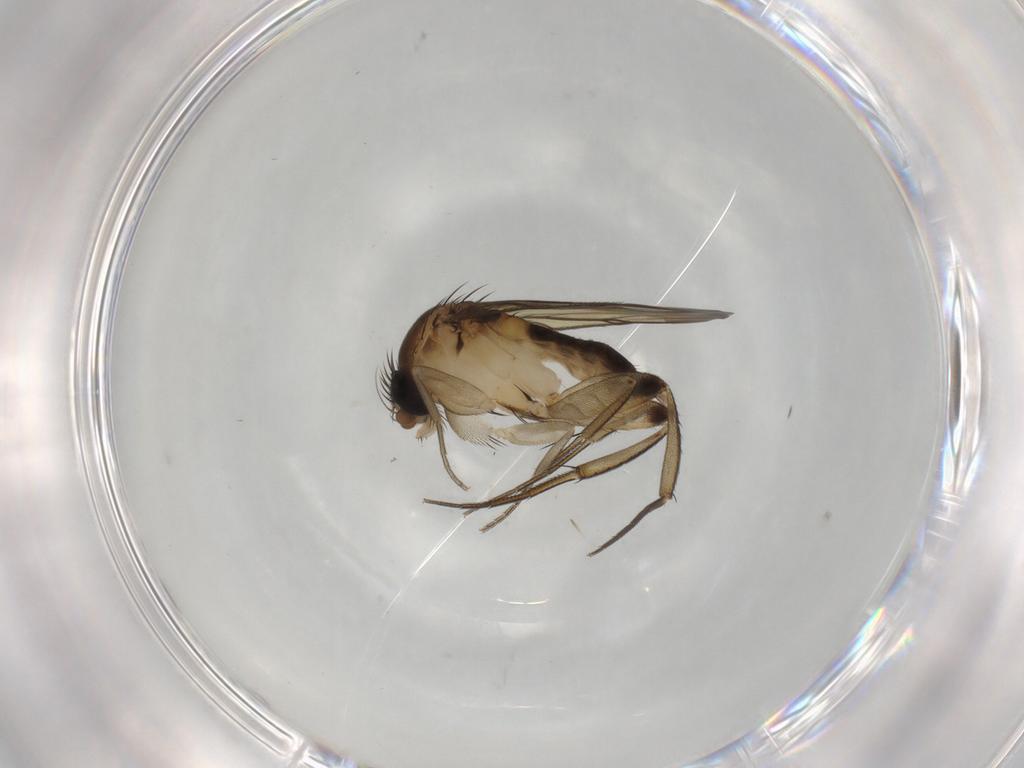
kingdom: Animalia
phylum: Arthropoda
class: Insecta
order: Diptera
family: Phoridae
